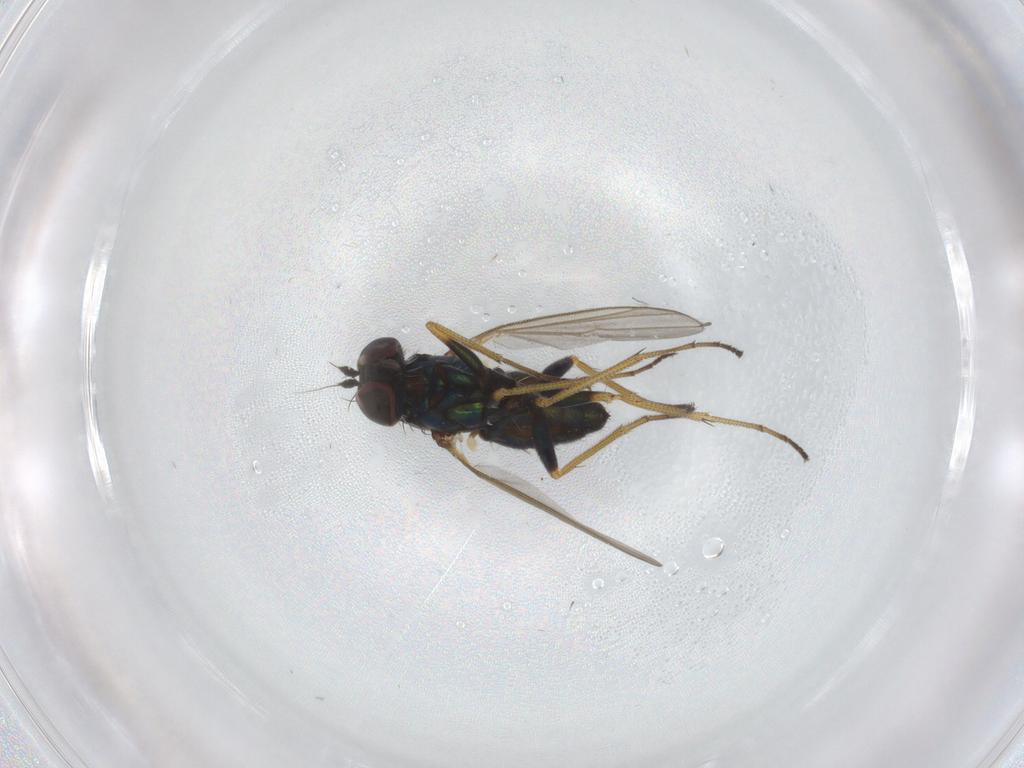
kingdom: Animalia
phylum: Arthropoda
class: Insecta
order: Diptera
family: Dolichopodidae
